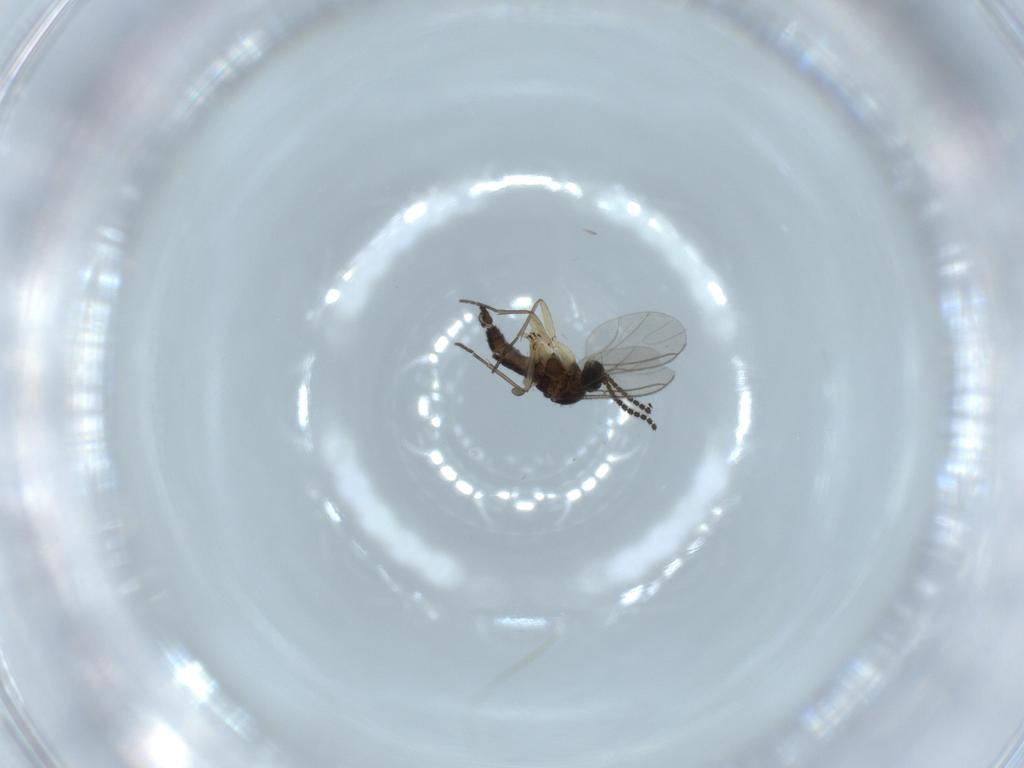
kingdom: Animalia
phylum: Arthropoda
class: Insecta
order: Diptera
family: Sciaridae
